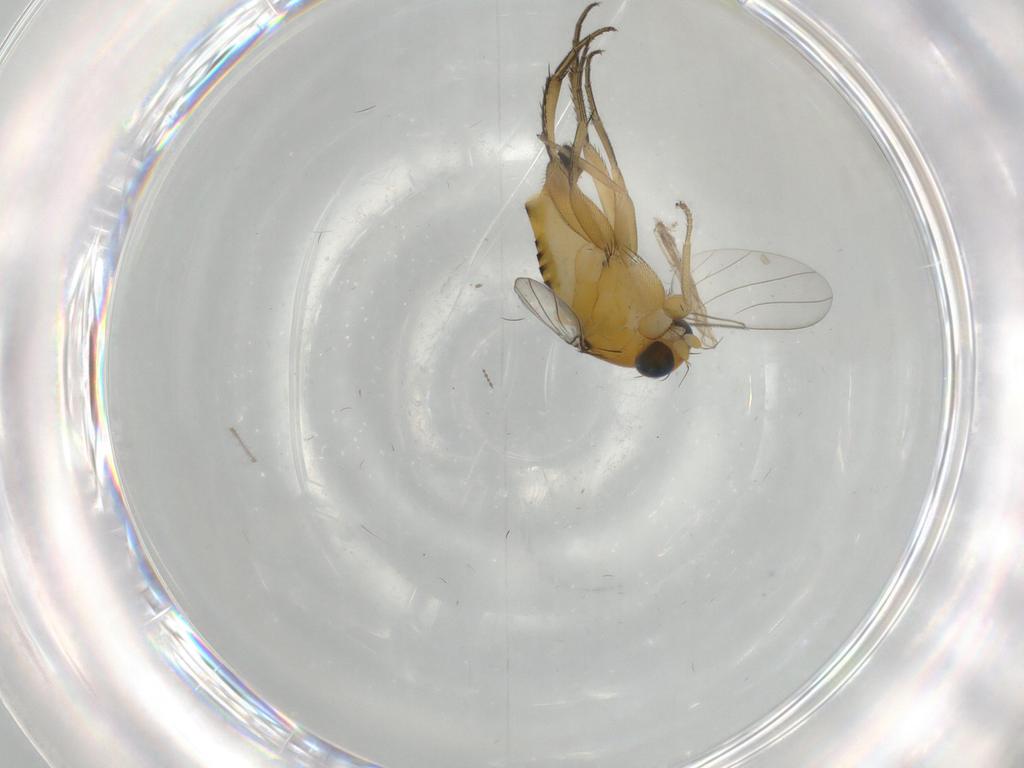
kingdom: Animalia
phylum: Arthropoda
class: Insecta
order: Diptera
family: Phoridae
